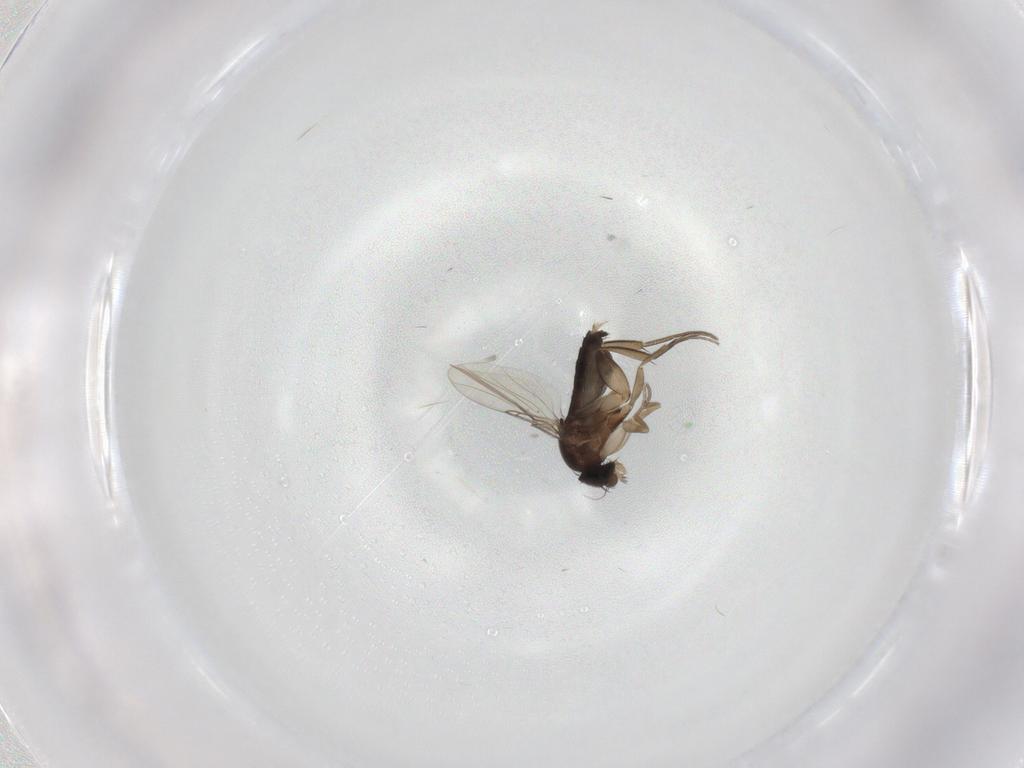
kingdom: Animalia
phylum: Arthropoda
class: Insecta
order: Diptera
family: Phoridae
